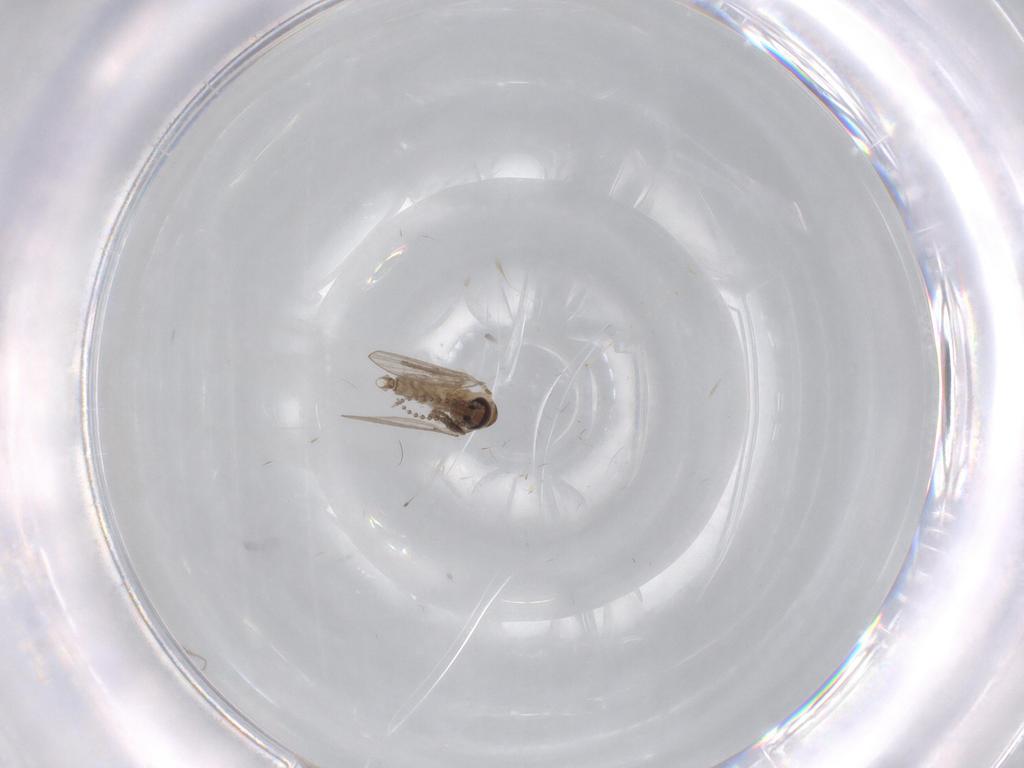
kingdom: Animalia
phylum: Arthropoda
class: Insecta
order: Diptera
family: Psychodidae
